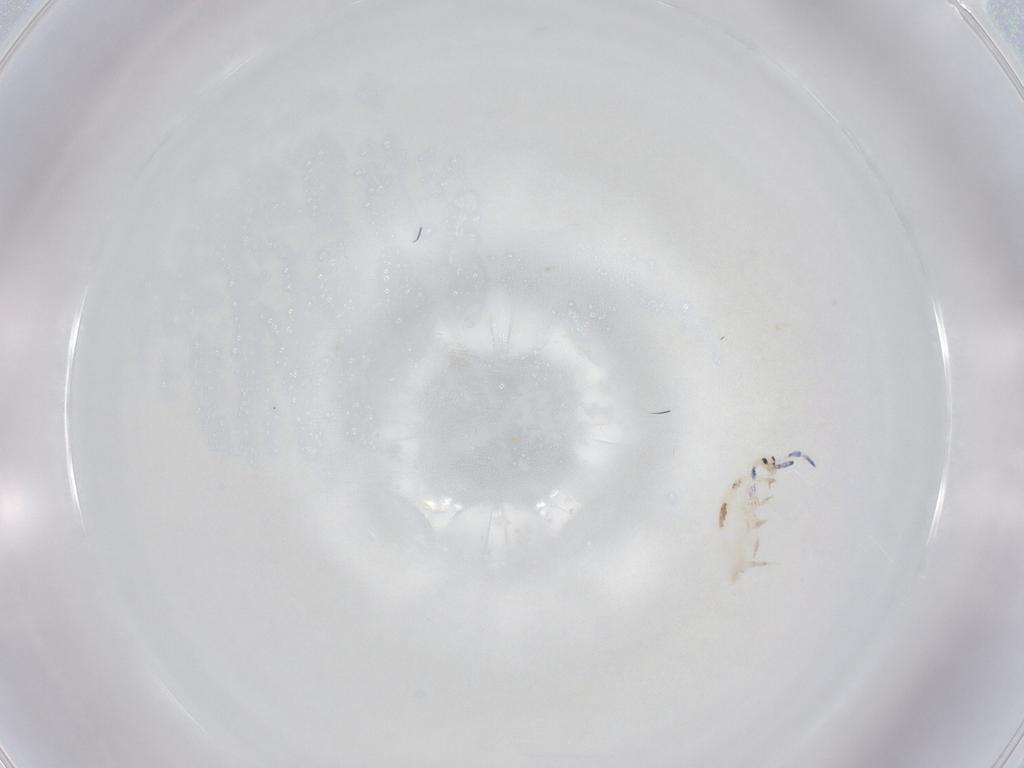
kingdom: Animalia
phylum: Arthropoda
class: Collembola
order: Entomobryomorpha
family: Entomobryidae
